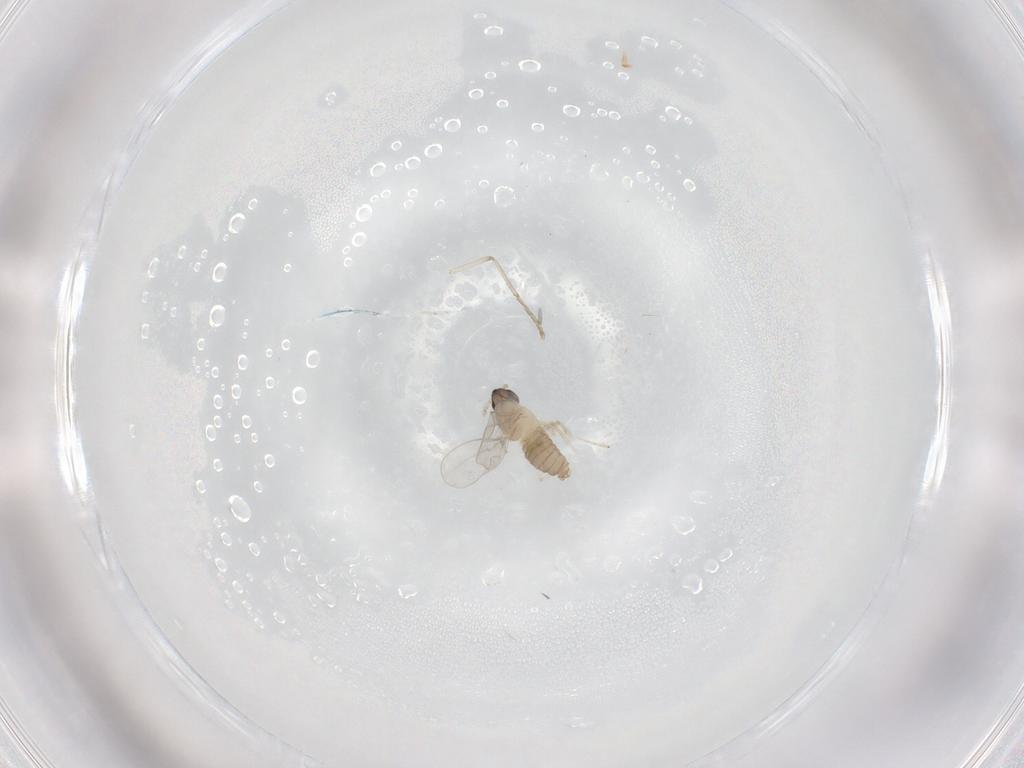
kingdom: Animalia
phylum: Arthropoda
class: Insecta
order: Diptera
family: Cecidomyiidae
